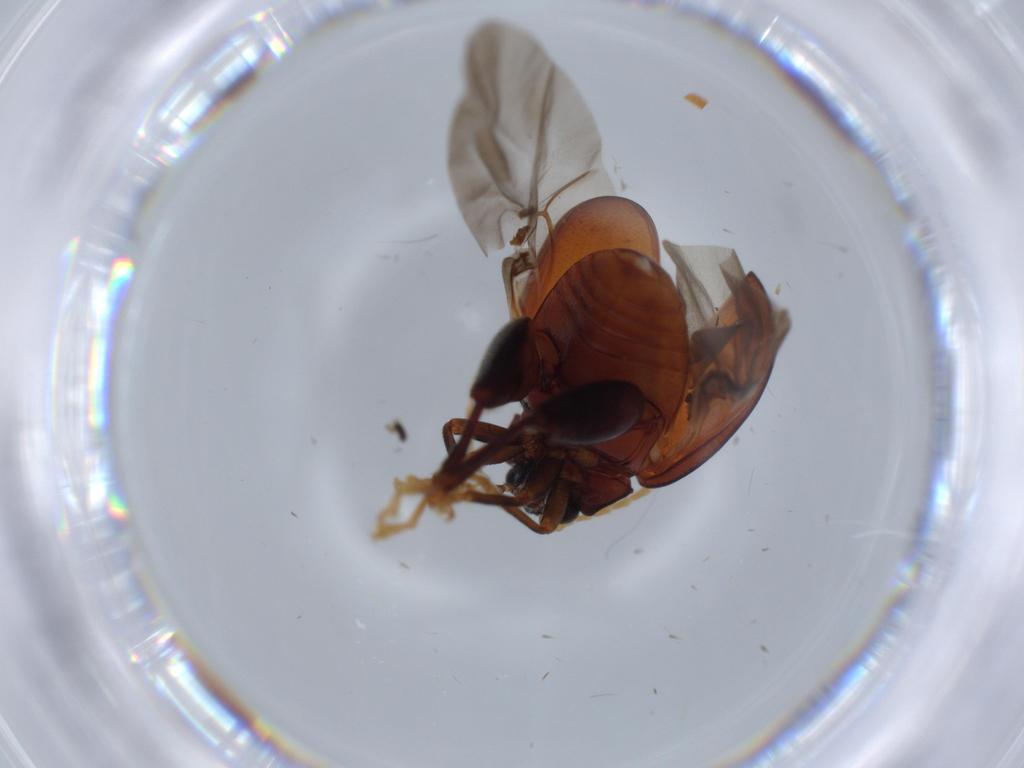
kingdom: Animalia
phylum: Arthropoda
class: Insecta
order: Coleoptera
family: Chrysomelidae
